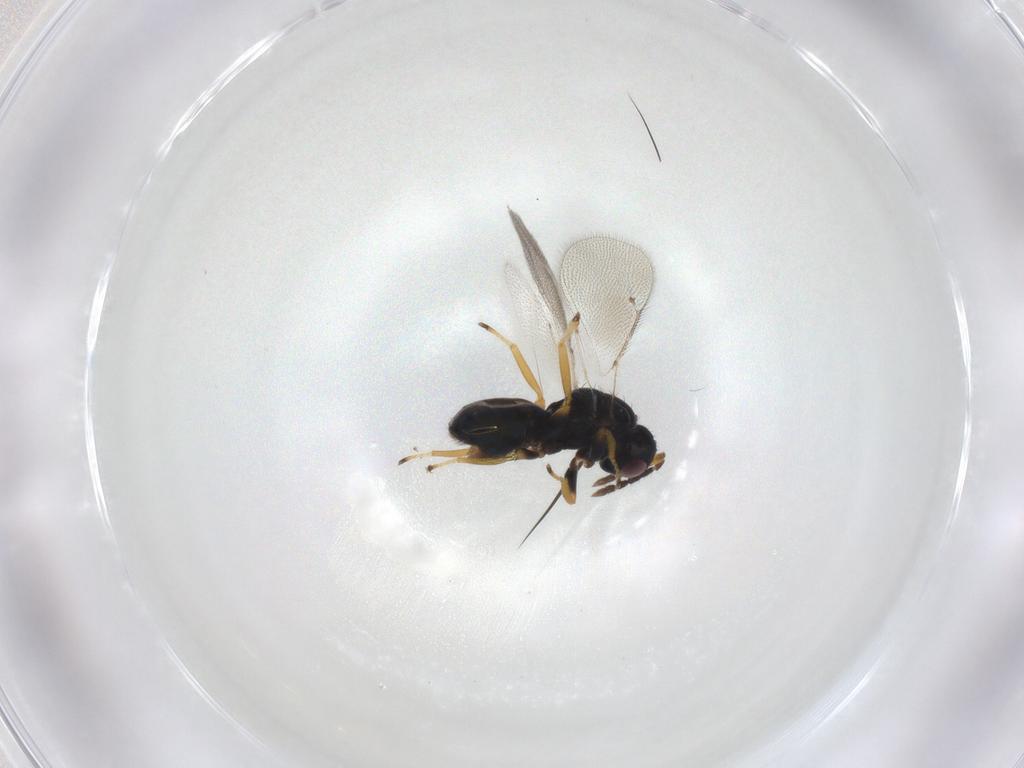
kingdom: Animalia
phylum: Arthropoda
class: Insecta
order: Hymenoptera
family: Eulophidae
